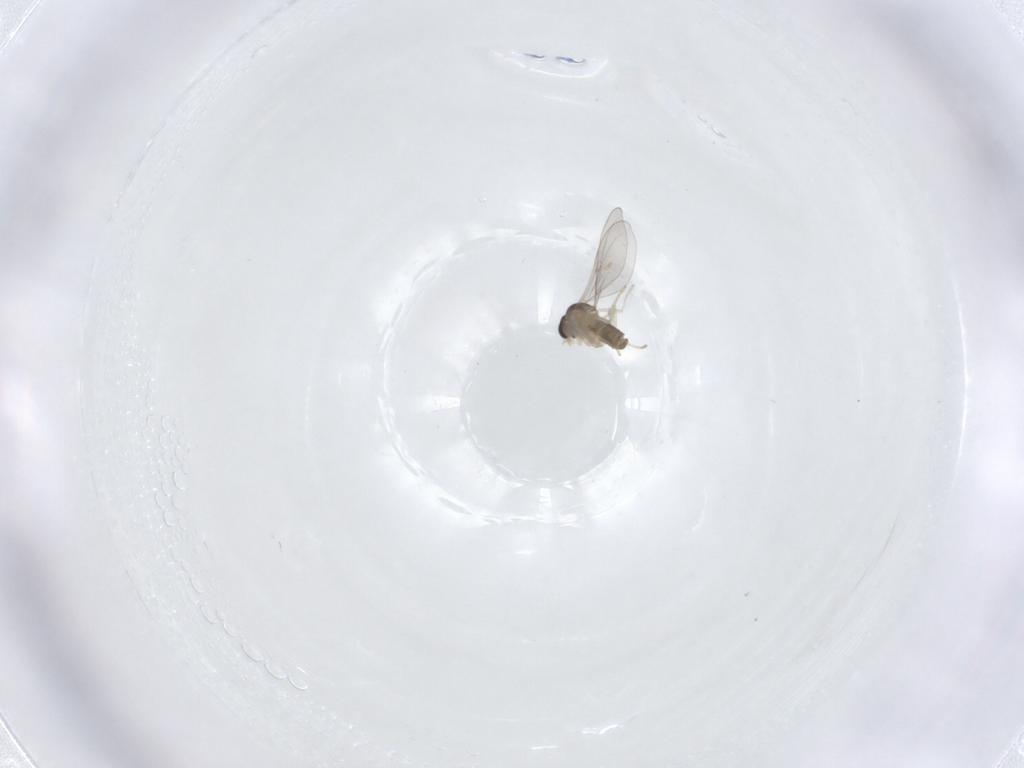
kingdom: Animalia
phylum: Arthropoda
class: Insecta
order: Diptera
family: Cecidomyiidae
